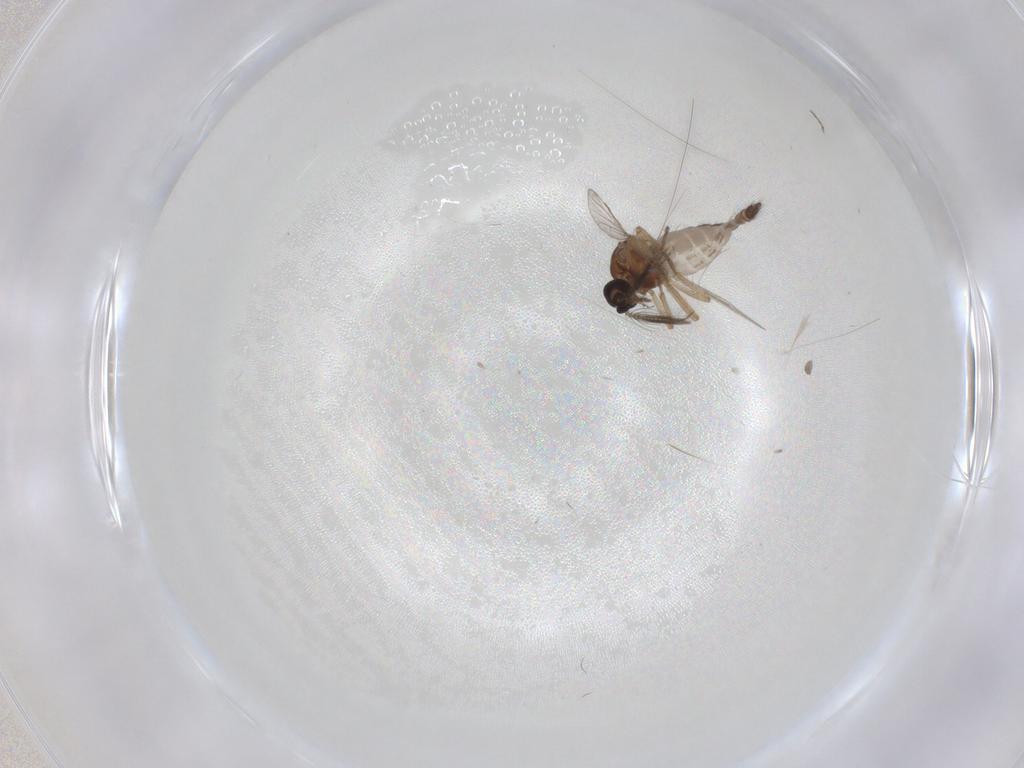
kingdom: Animalia
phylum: Arthropoda
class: Insecta
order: Diptera
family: Ceratopogonidae
